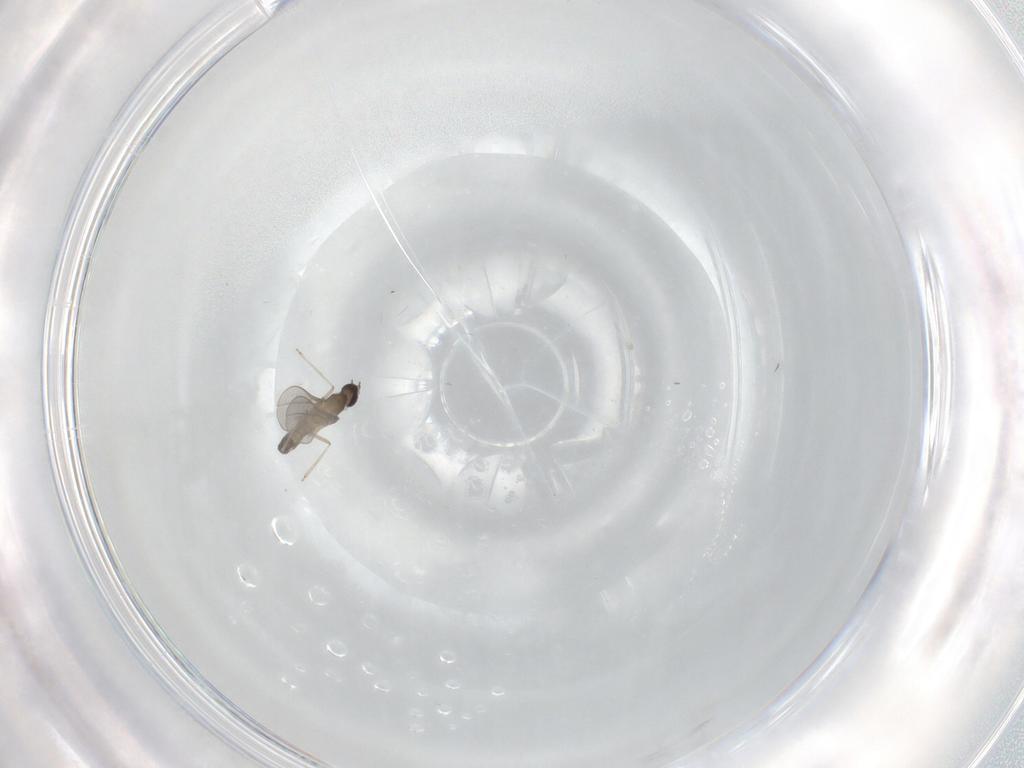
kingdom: Animalia
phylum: Arthropoda
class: Insecta
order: Diptera
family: Cecidomyiidae
